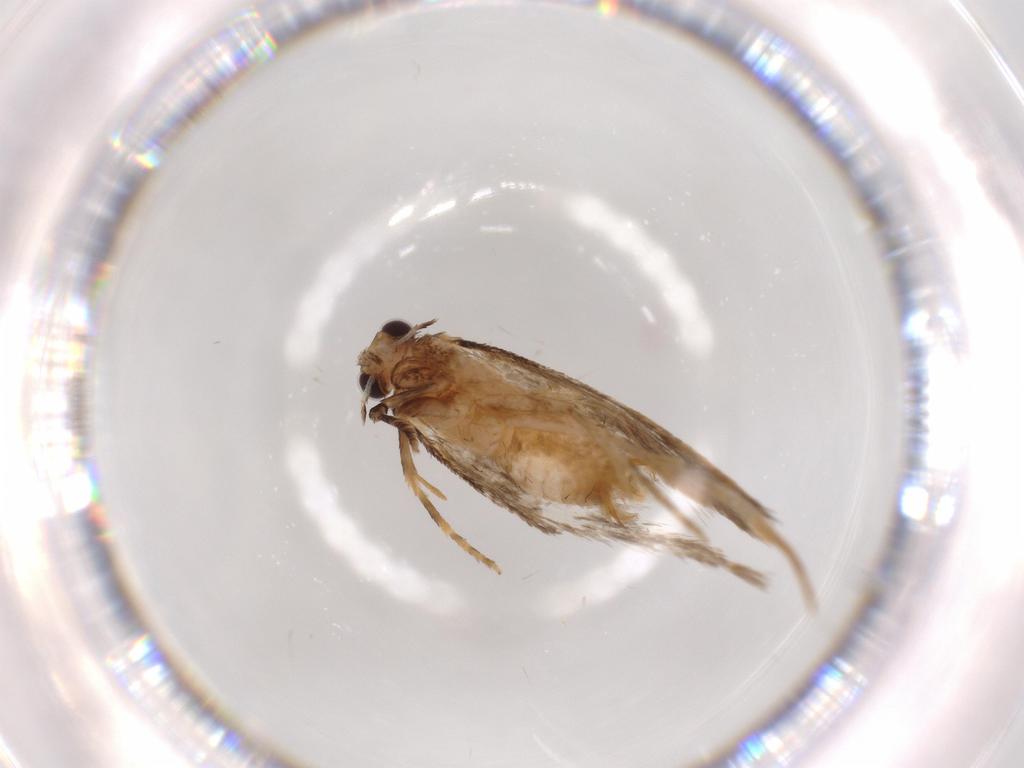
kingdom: Animalia
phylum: Arthropoda
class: Insecta
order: Lepidoptera
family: Tineidae
